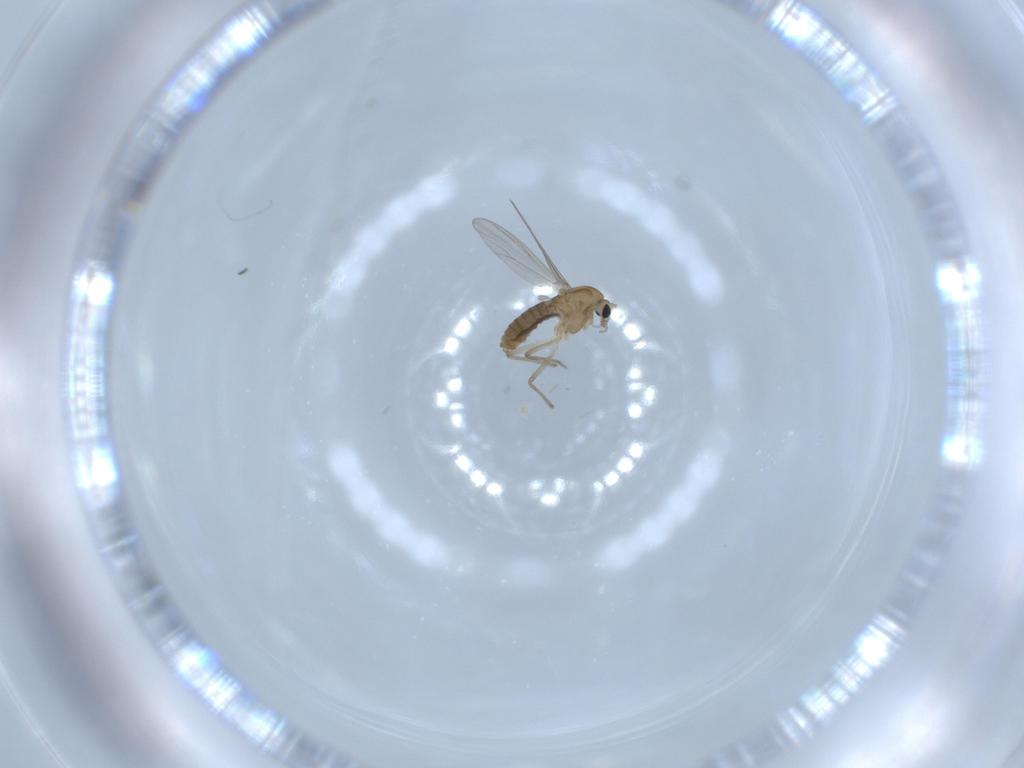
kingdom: Animalia
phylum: Arthropoda
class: Insecta
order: Diptera
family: Chironomidae
